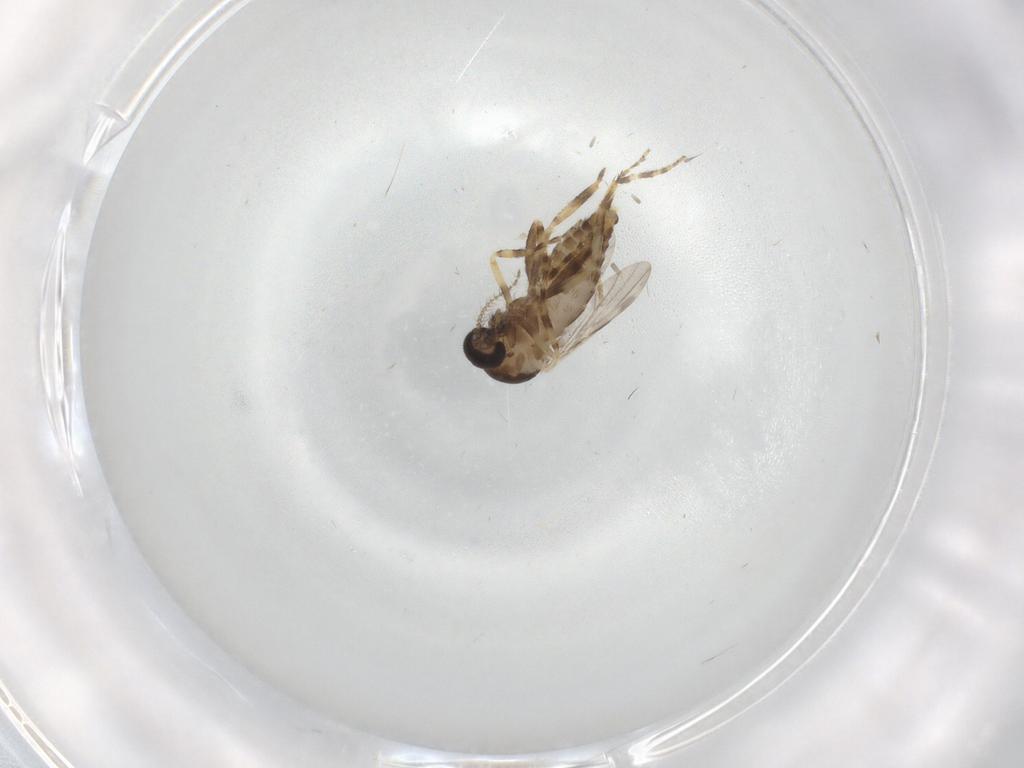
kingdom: Animalia
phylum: Arthropoda
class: Insecta
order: Diptera
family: Ceratopogonidae
